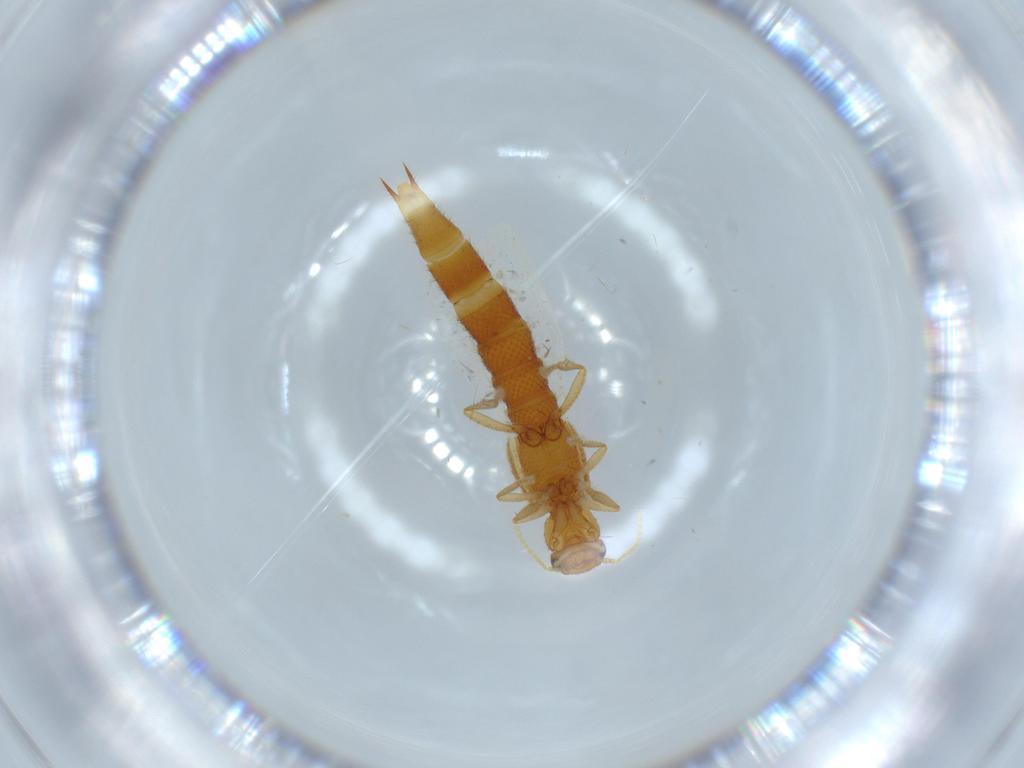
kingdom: Animalia
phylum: Arthropoda
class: Insecta
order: Coleoptera
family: Staphylinidae
